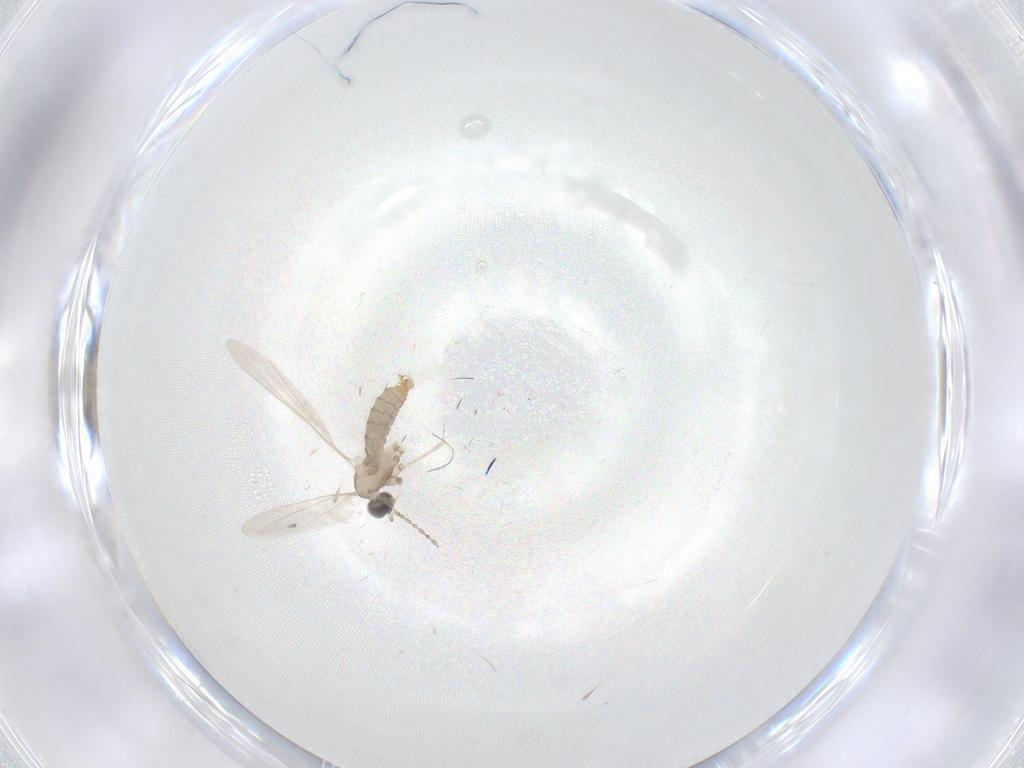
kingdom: Animalia
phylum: Arthropoda
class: Insecta
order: Diptera
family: Cecidomyiidae
